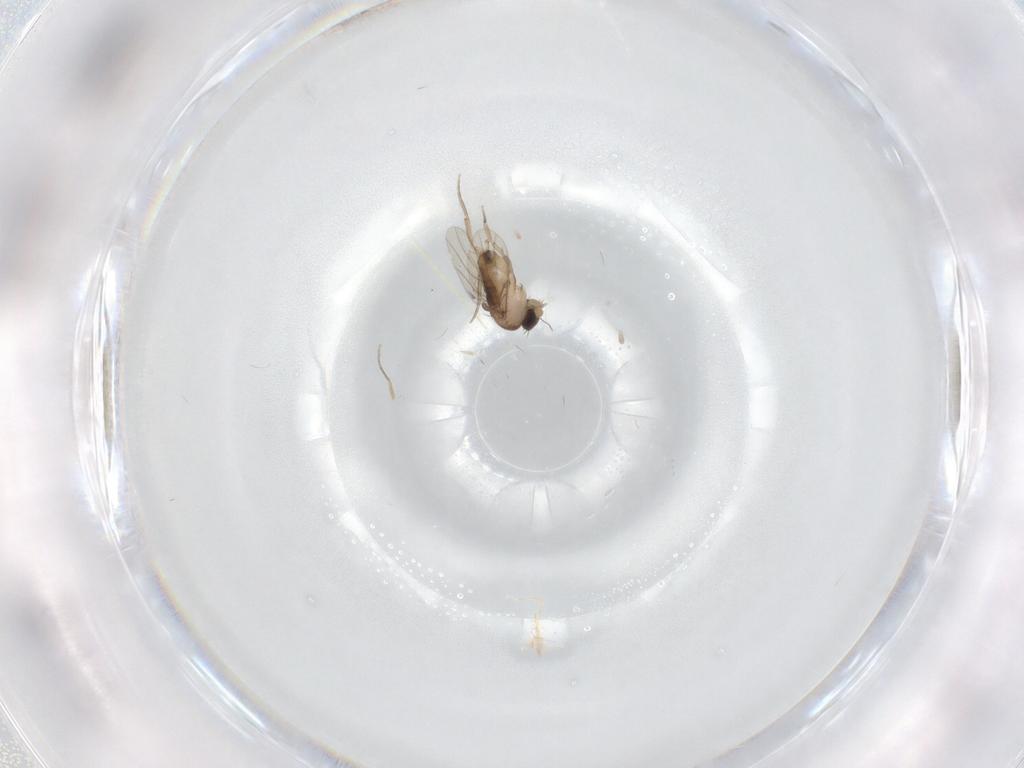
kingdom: Animalia
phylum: Arthropoda
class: Insecta
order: Diptera
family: Phoridae
